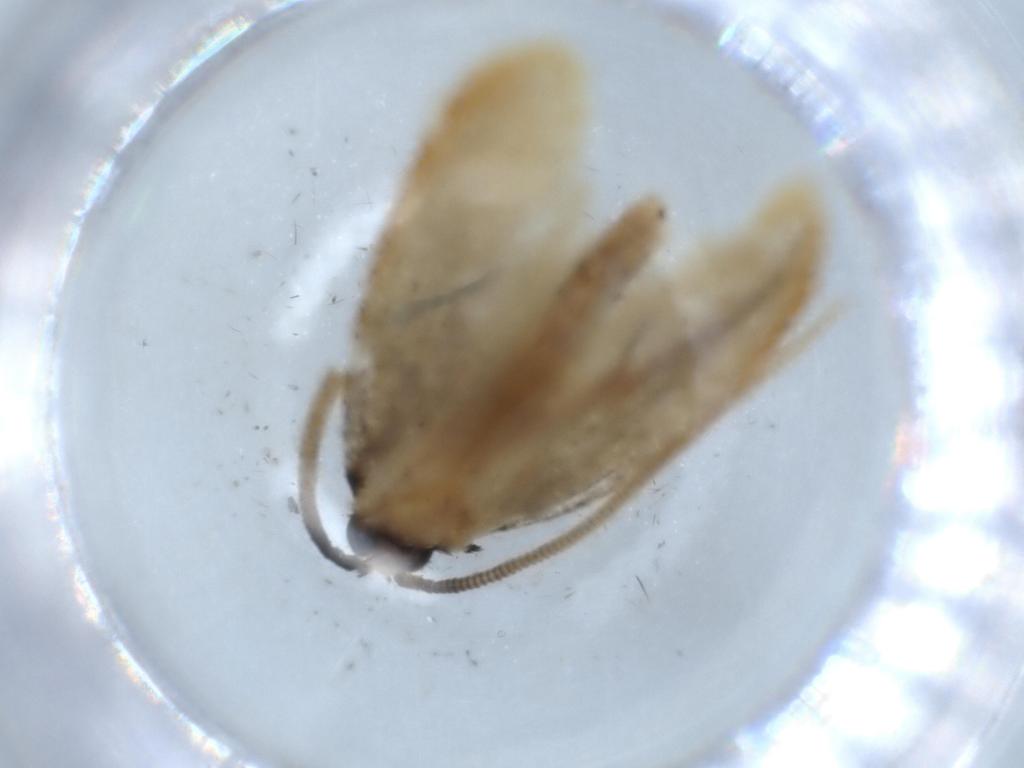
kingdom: Animalia
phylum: Arthropoda
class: Insecta
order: Lepidoptera
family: Tineidae
